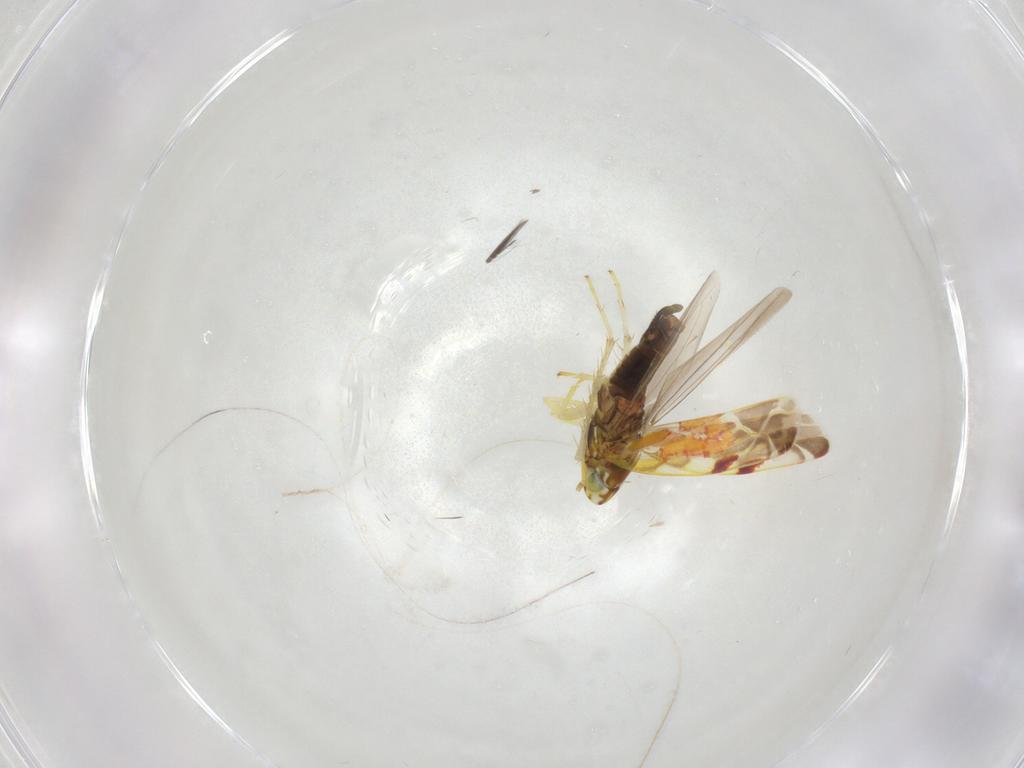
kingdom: Animalia
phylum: Arthropoda
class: Insecta
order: Hemiptera
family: Cicadellidae
